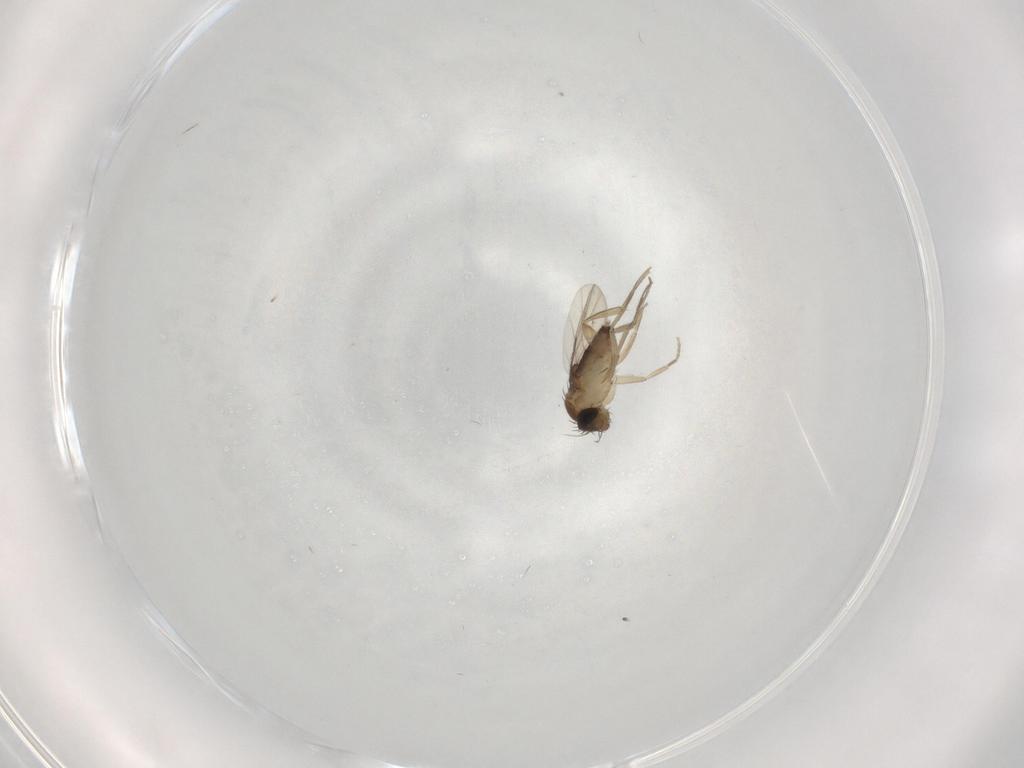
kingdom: Animalia
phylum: Arthropoda
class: Insecta
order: Diptera
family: Phoridae
